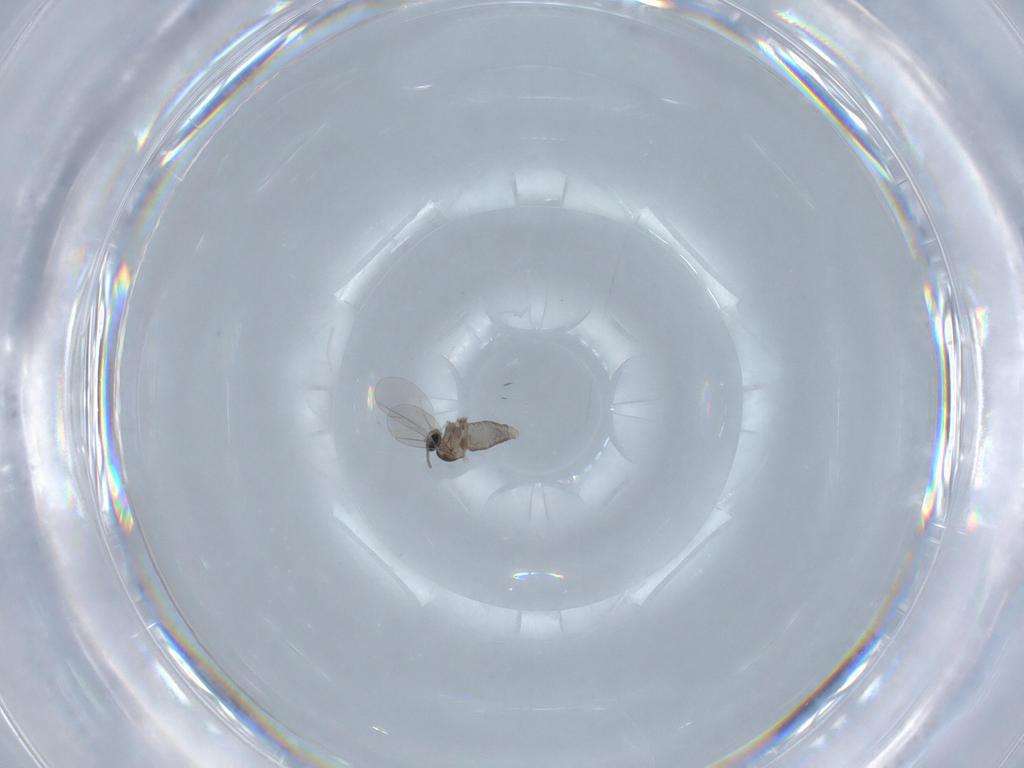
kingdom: Animalia
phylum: Arthropoda
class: Insecta
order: Diptera
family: Cecidomyiidae
